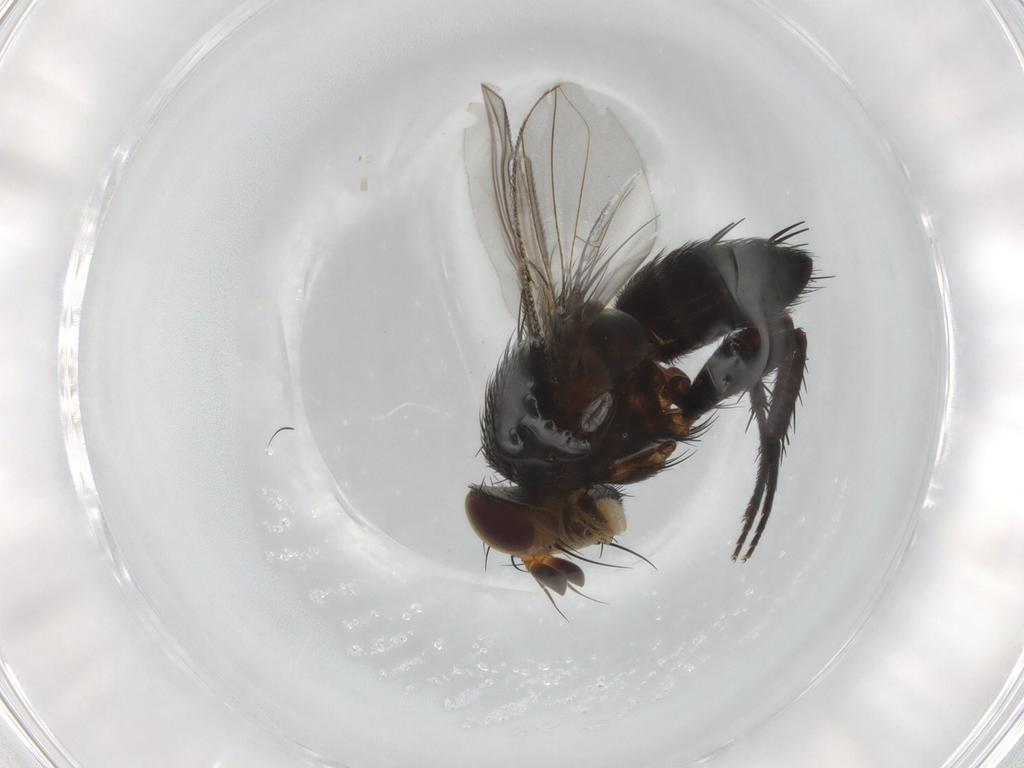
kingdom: Animalia
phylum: Arthropoda
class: Insecta
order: Diptera
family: Tachinidae
